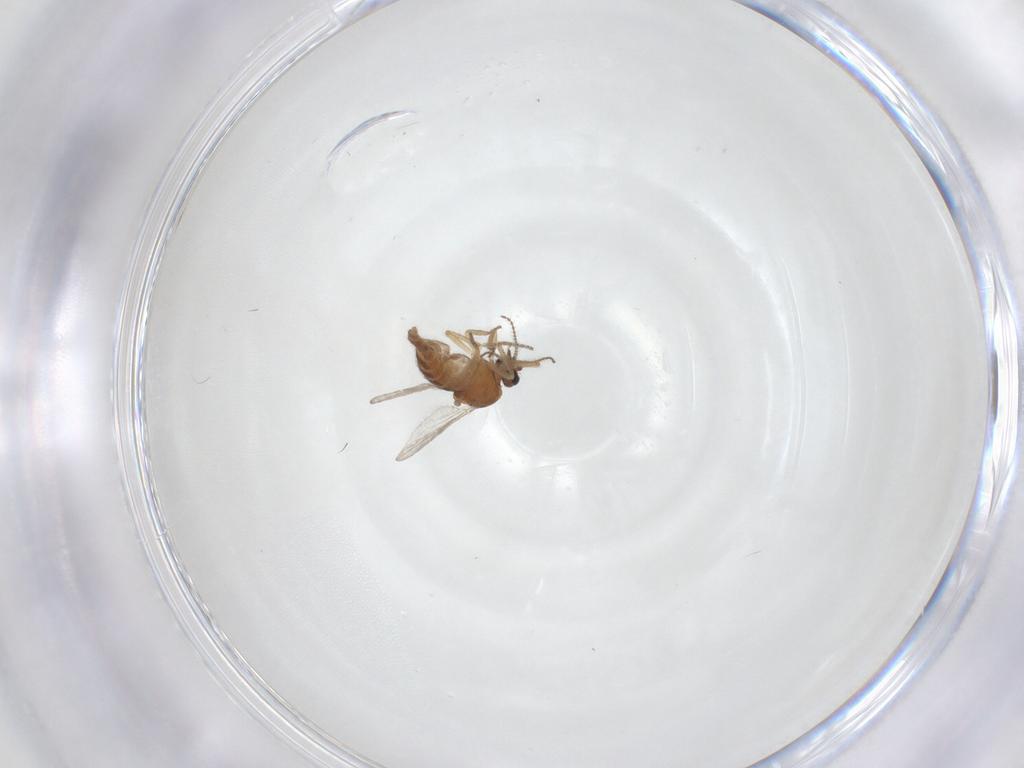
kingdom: Animalia
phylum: Arthropoda
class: Insecta
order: Diptera
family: Ceratopogonidae
